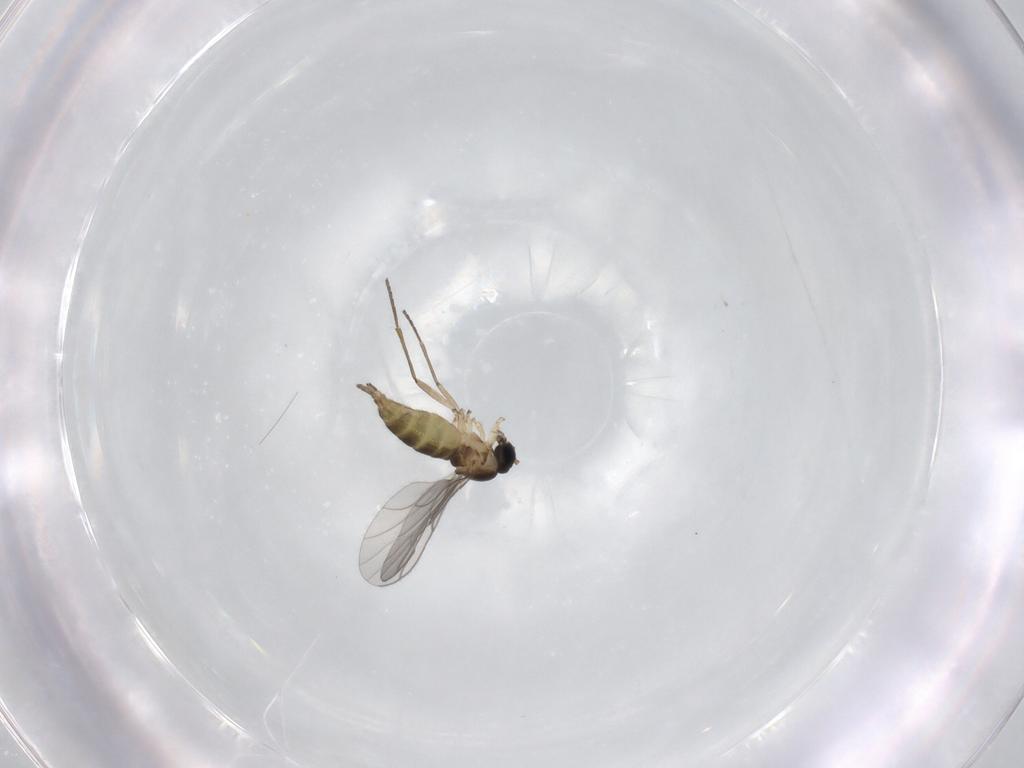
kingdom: Animalia
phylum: Arthropoda
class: Insecta
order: Diptera
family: Sciaridae
